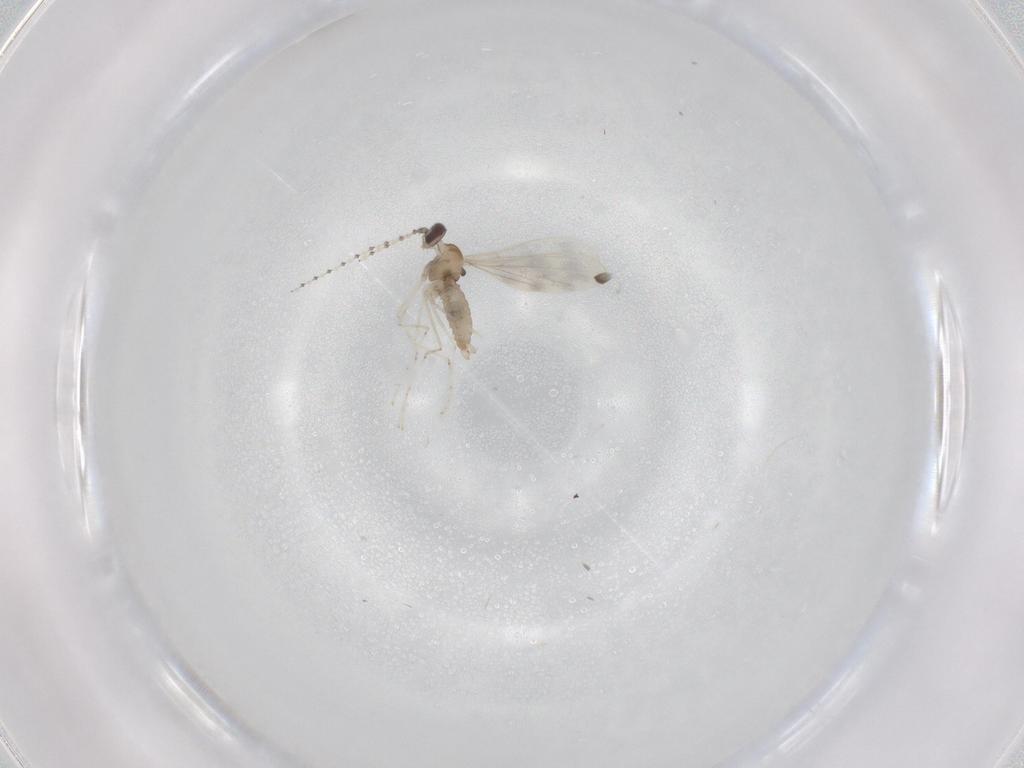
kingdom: Animalia
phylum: Arthropoda
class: Insecta
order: Diptera
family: Cecidomyiidae
